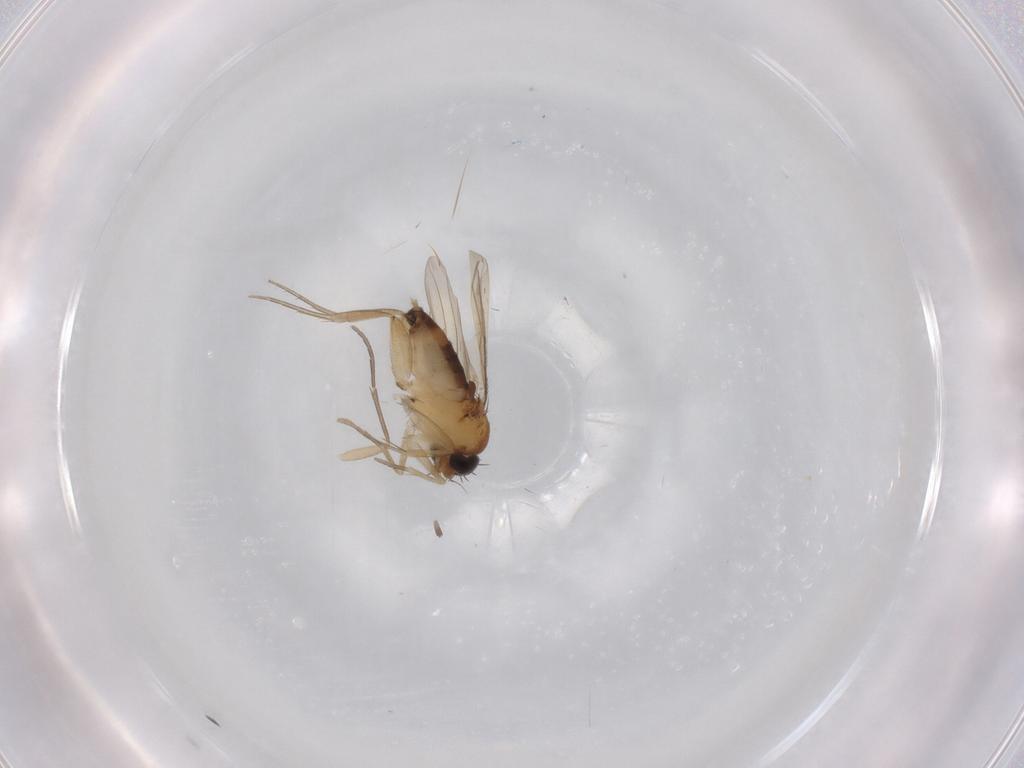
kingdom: Animalia
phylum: Arthropoda
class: Insecta
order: Diptera
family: Phoridae
